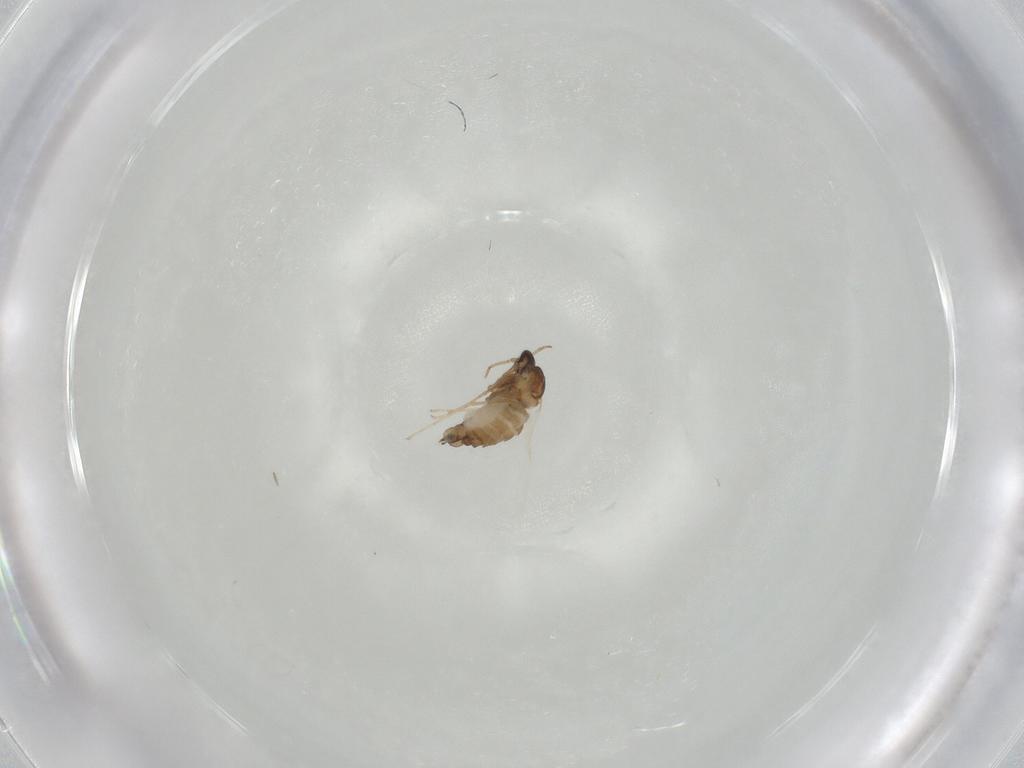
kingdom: Animalia
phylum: Arthropoda
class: Insecta
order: Diptera
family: Cecidomyiidae
